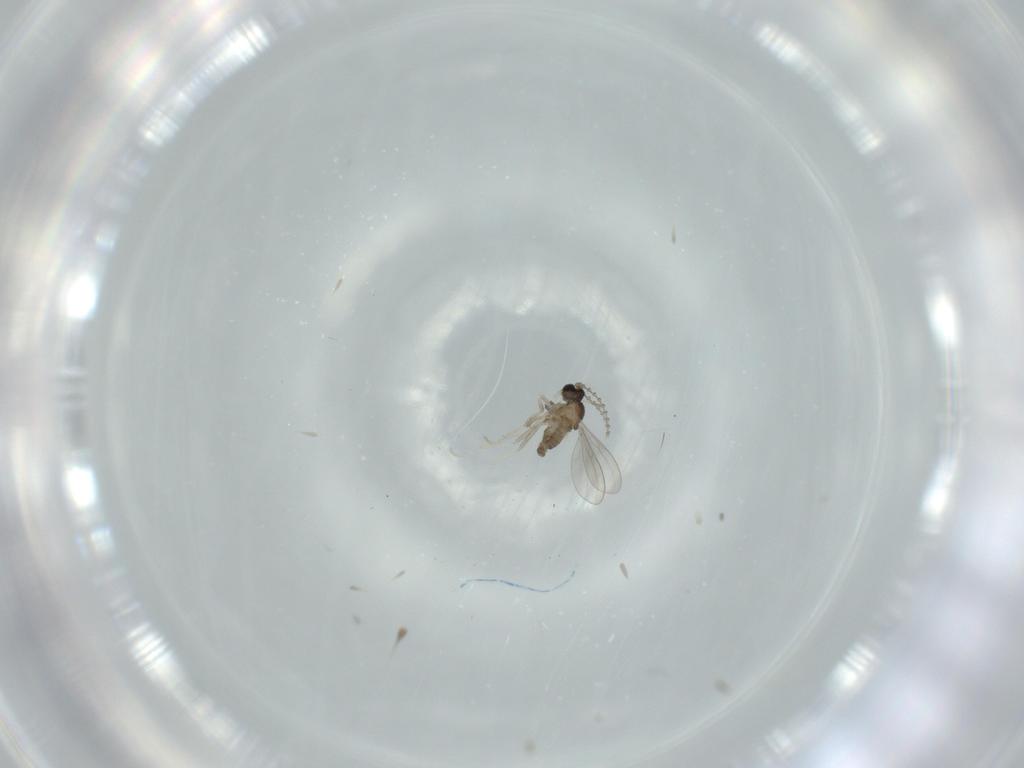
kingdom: Animalia
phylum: Arthropoda
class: Insecta
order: Diptera
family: Cecidomyiidae
